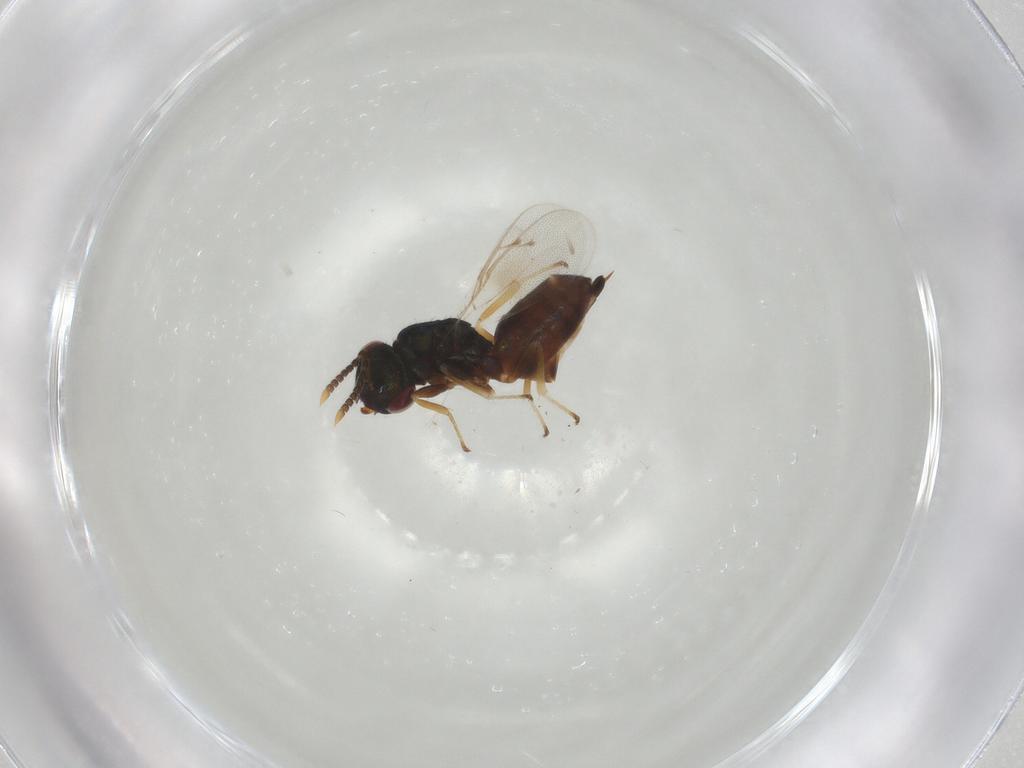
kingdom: Animalia
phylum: Arthropoda
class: Insecta
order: Hymenoptera
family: Pteromalidae
